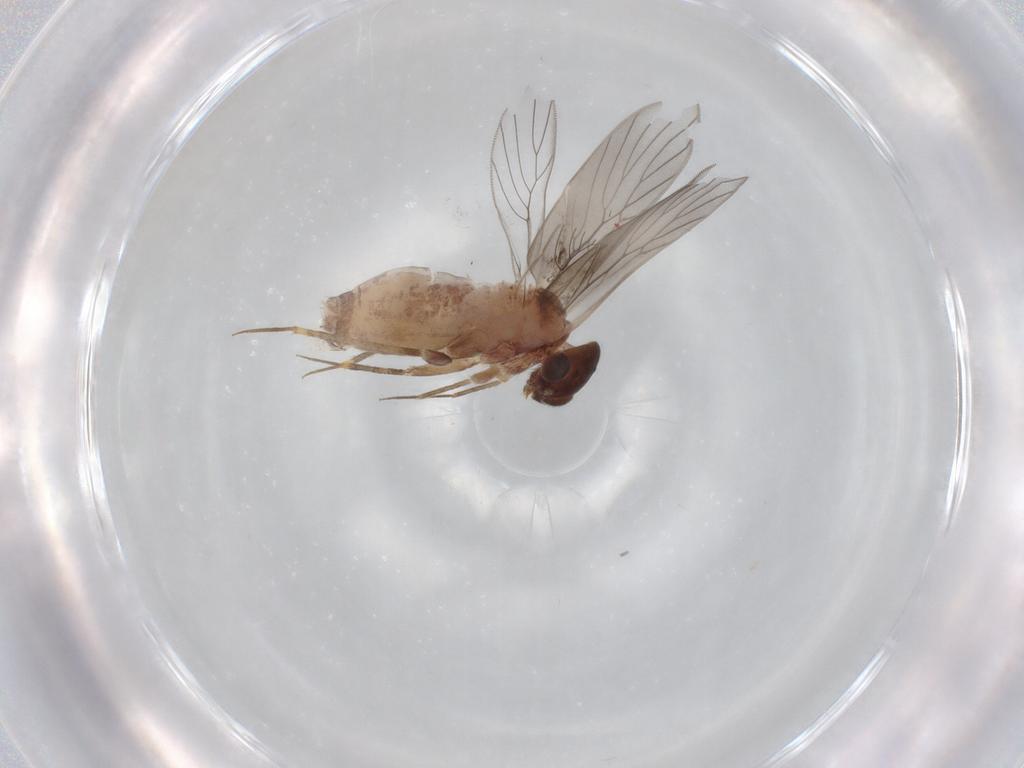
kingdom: Animalia
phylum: Arthropoda
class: Insecta
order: Psocodea
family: Lepidopsocidae
